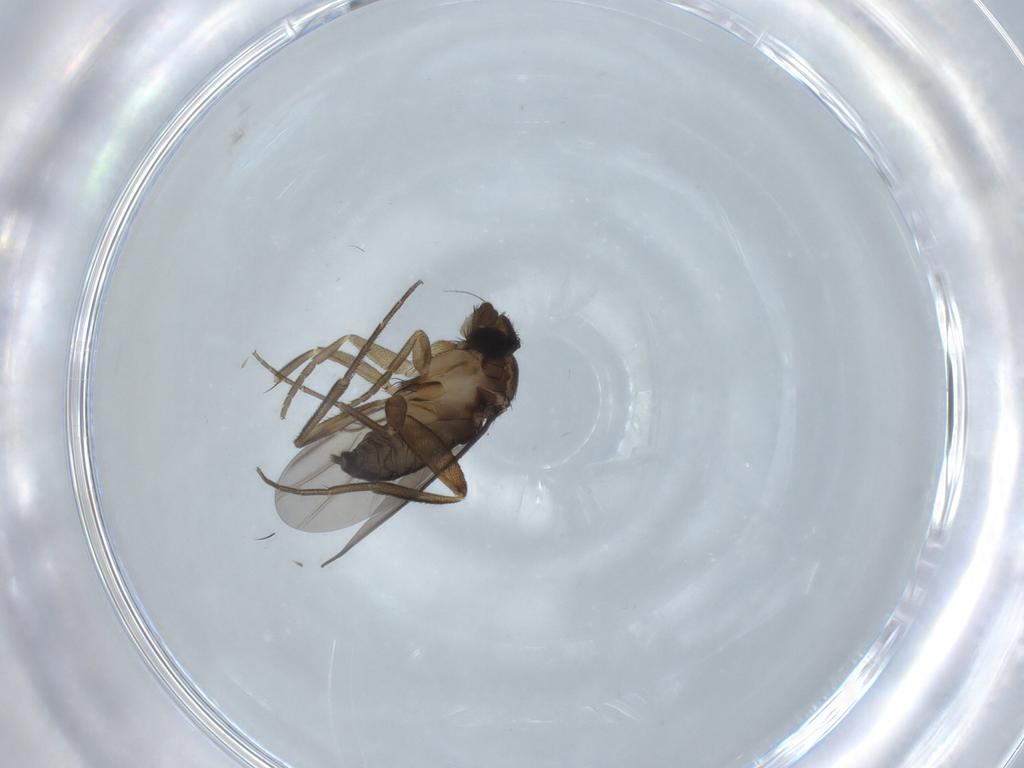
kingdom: Animalia
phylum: Arthropoda
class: Insecta
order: Diptera
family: Phoridae
